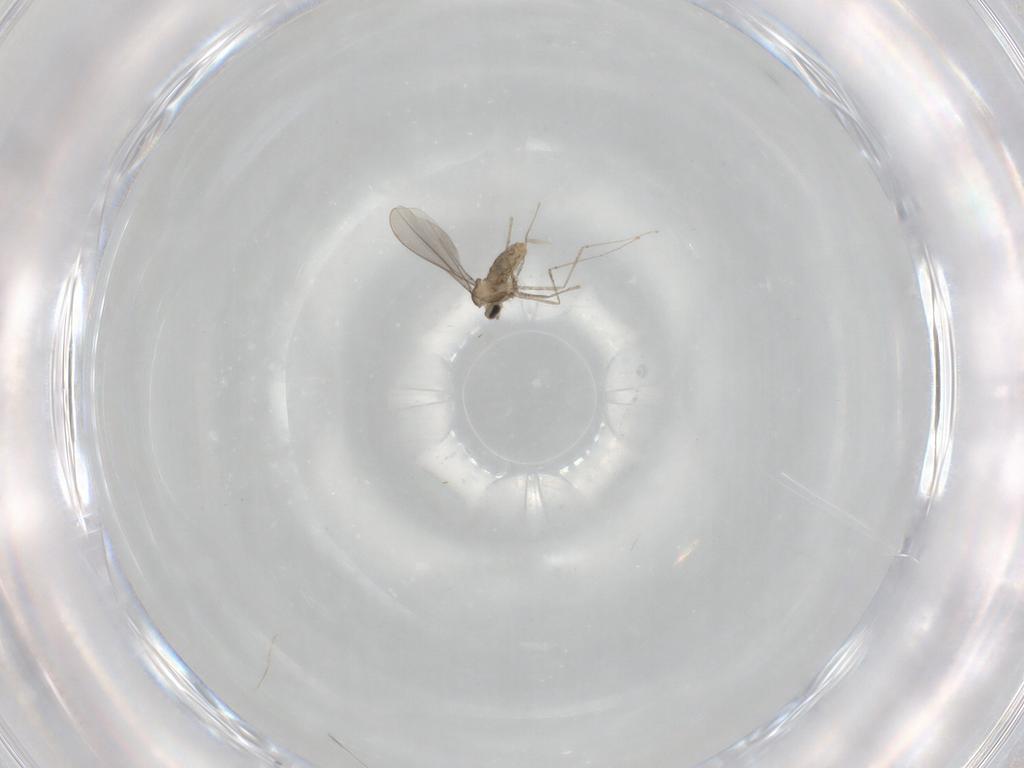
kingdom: Animalia
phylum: Arthropoda
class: Insecta
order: Diptera
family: Cecidomyiidae
